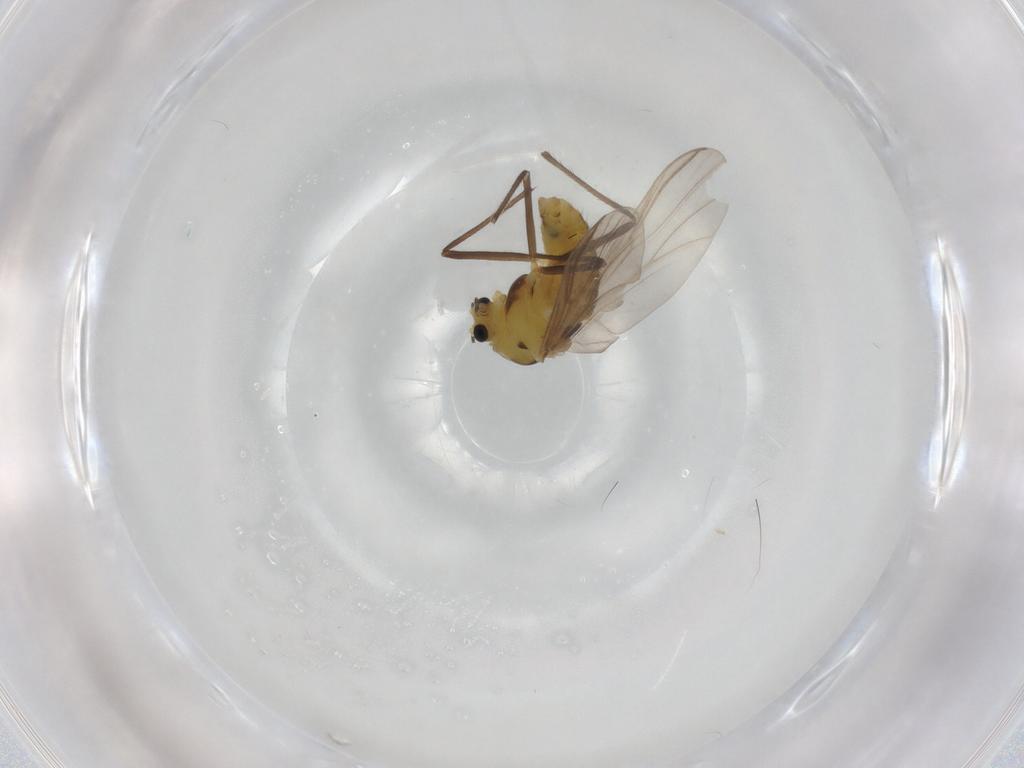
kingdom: Animalia
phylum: Arthropoda
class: Insecta
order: Diptera
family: Chironomidae
